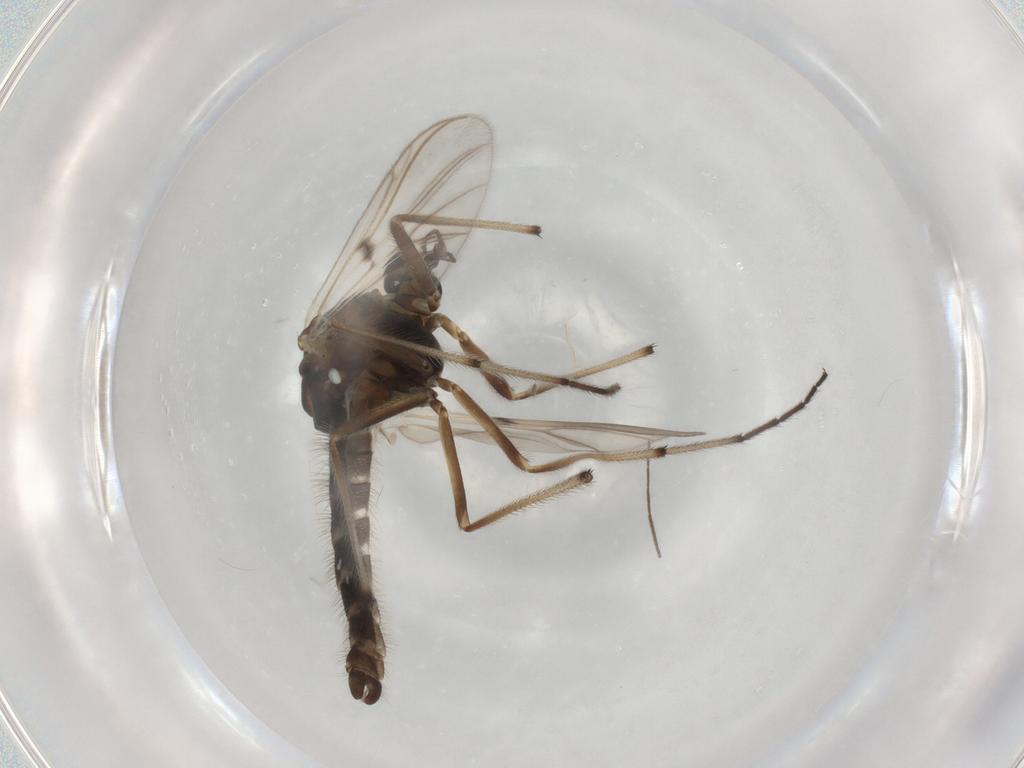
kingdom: Animalia
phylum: Arthropoda
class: Insecta
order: Diptera
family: Chironomidae
